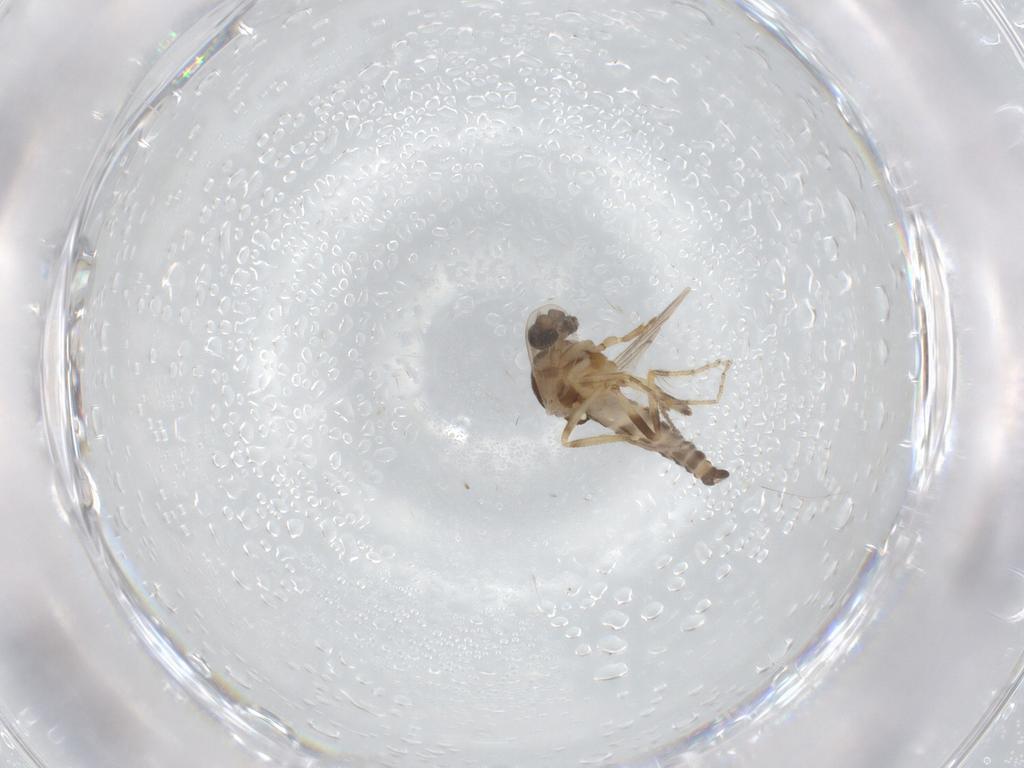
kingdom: Animalia
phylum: Arthropoda
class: Insecta
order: Diptera
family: Ceratopogonidae
